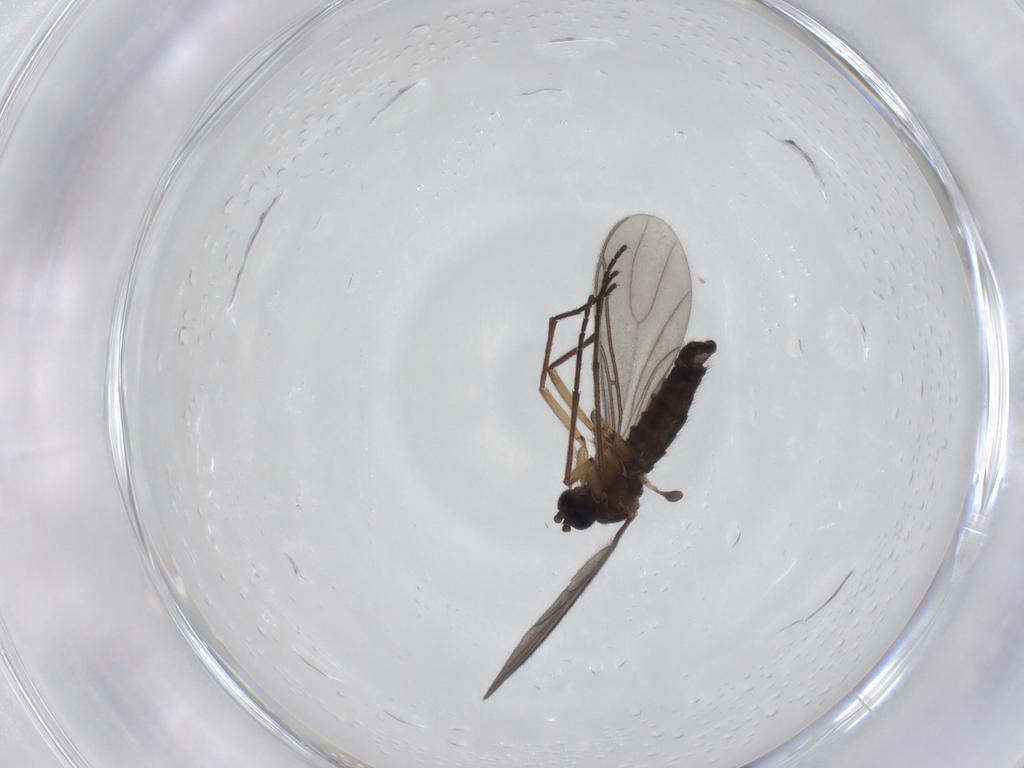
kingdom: Animalia
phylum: Arthropoda
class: Insecta
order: Diptera
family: Sciaridae
